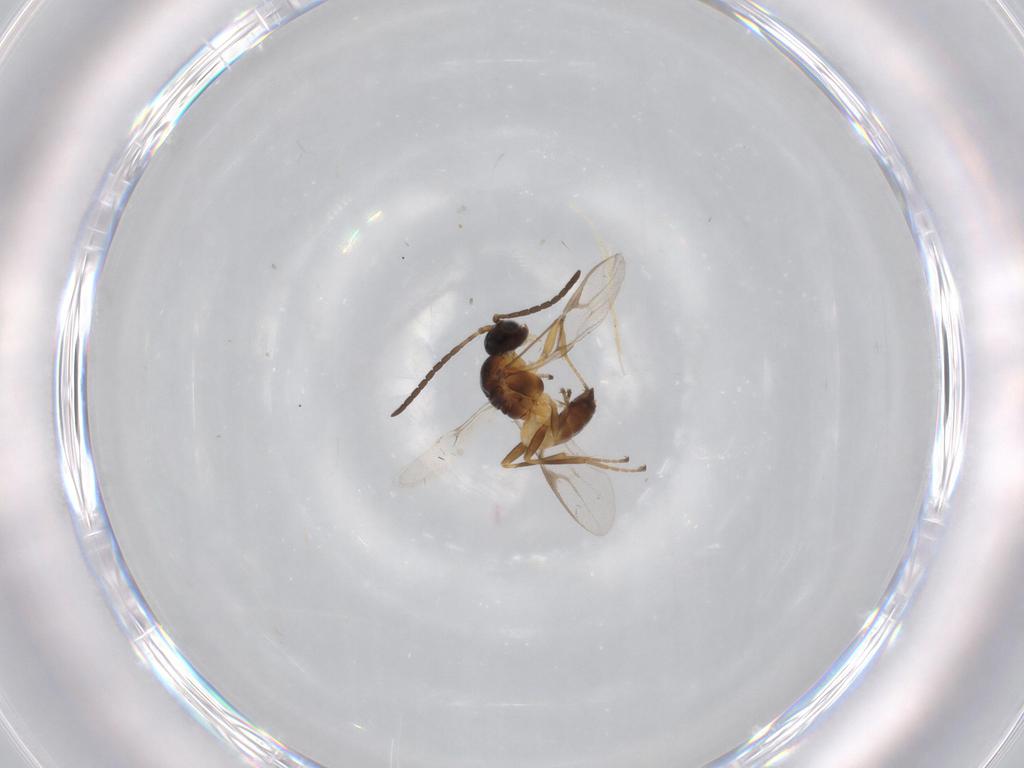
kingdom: Animalia
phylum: Arthropoda
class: Insecta
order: Hymenoptera
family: Braconidae
